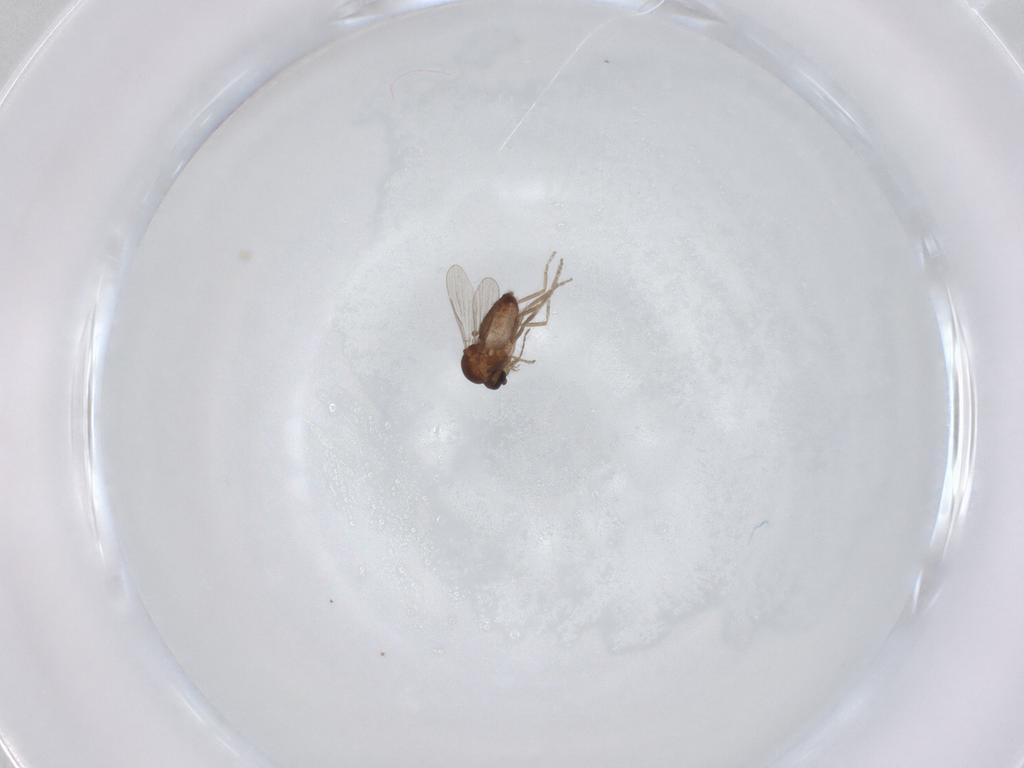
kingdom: Animalia
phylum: Arthropoda
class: Insecta
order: Diptera
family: Ceratopogonidae
